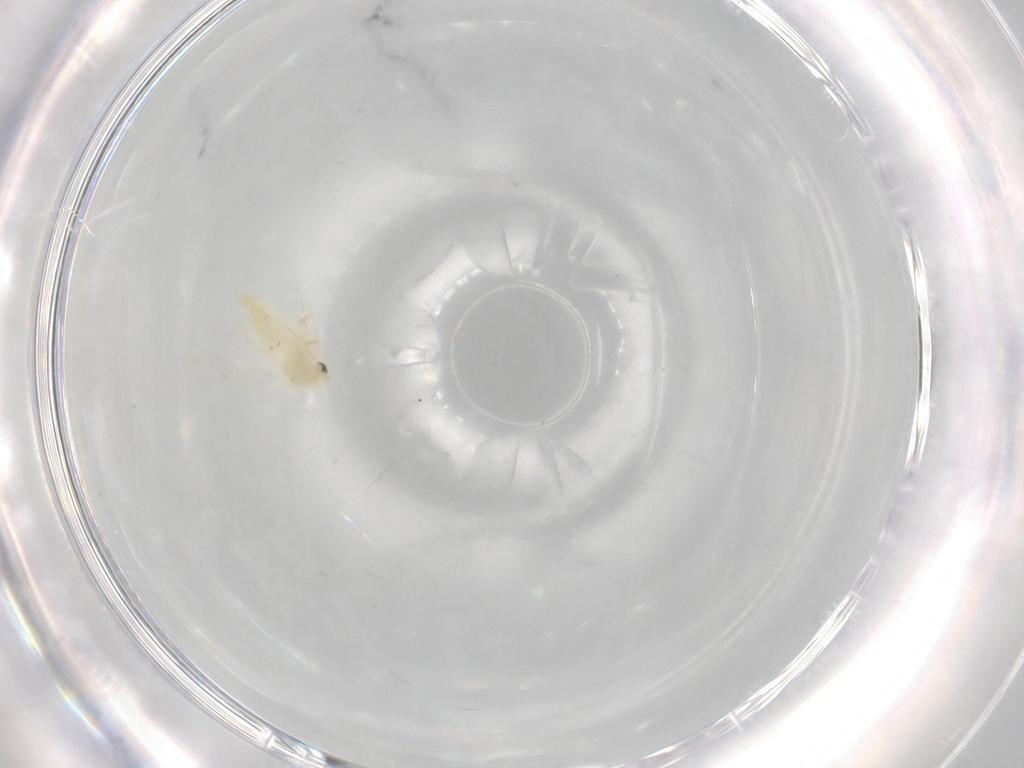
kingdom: Animalia
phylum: Arthropoda
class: Insecta
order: Hemiptera
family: Aleyrodidae
